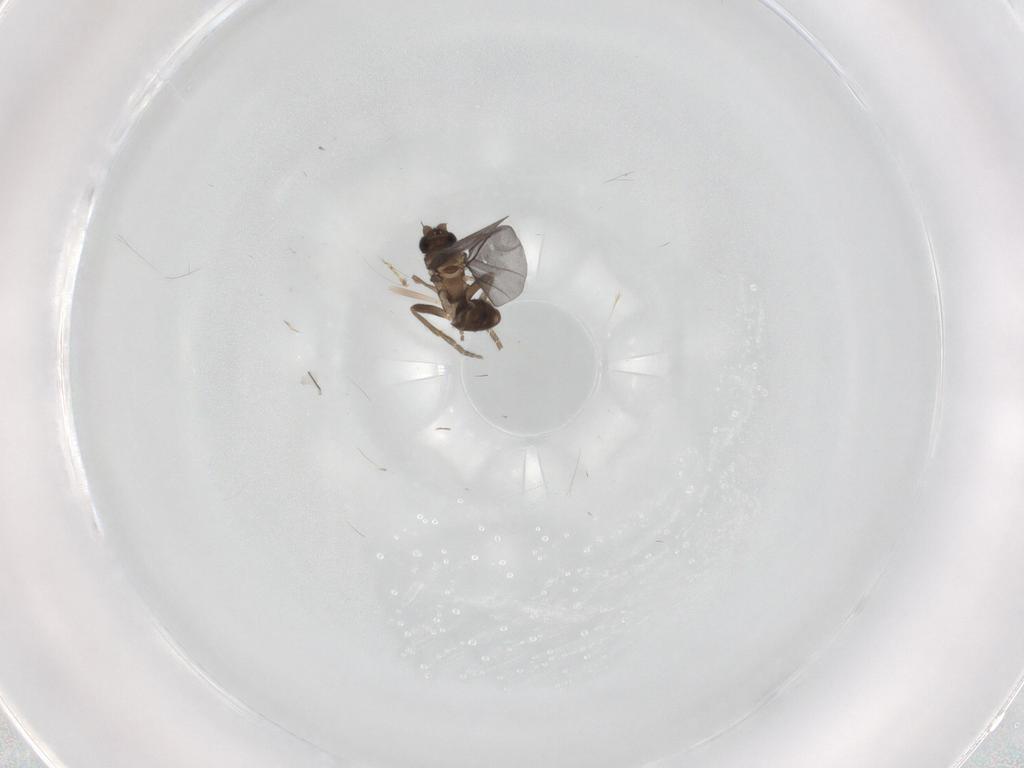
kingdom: Animalia
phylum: Arthropoda
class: Insecta
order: Diptera
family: Phoridae
